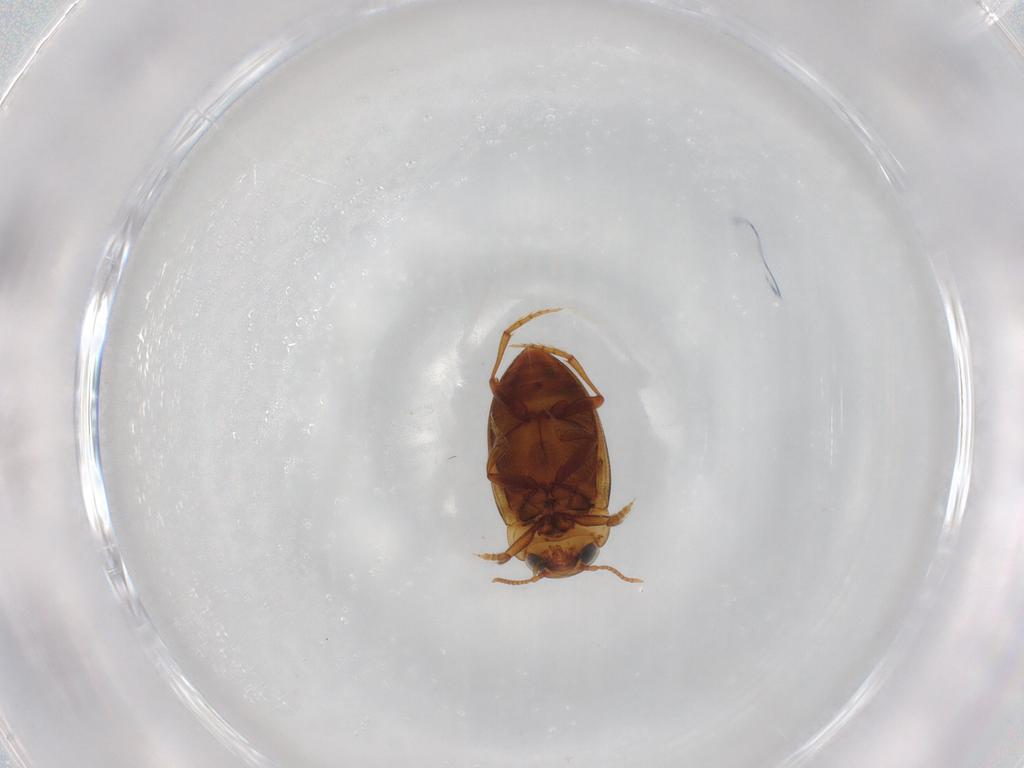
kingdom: Animalia
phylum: Arthropoda
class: Insecta
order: Coleoptera
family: Dytiscidae
